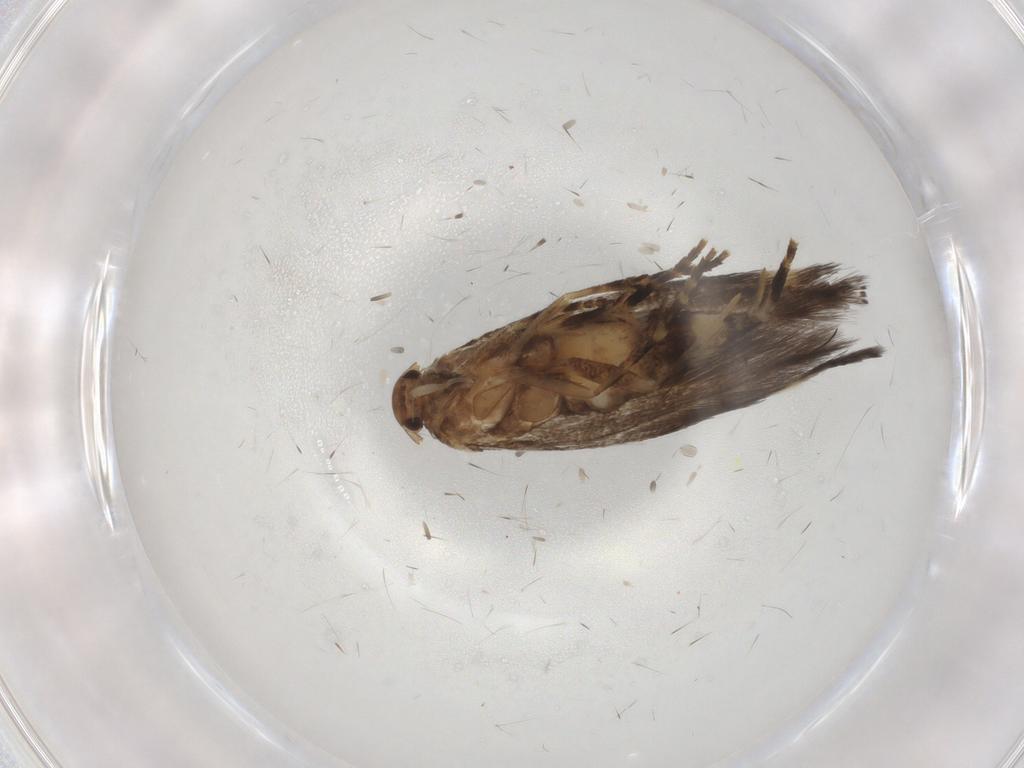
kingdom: Animalia
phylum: Arthropoda
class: Insecta
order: Lepidoptera
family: Elachistidae
